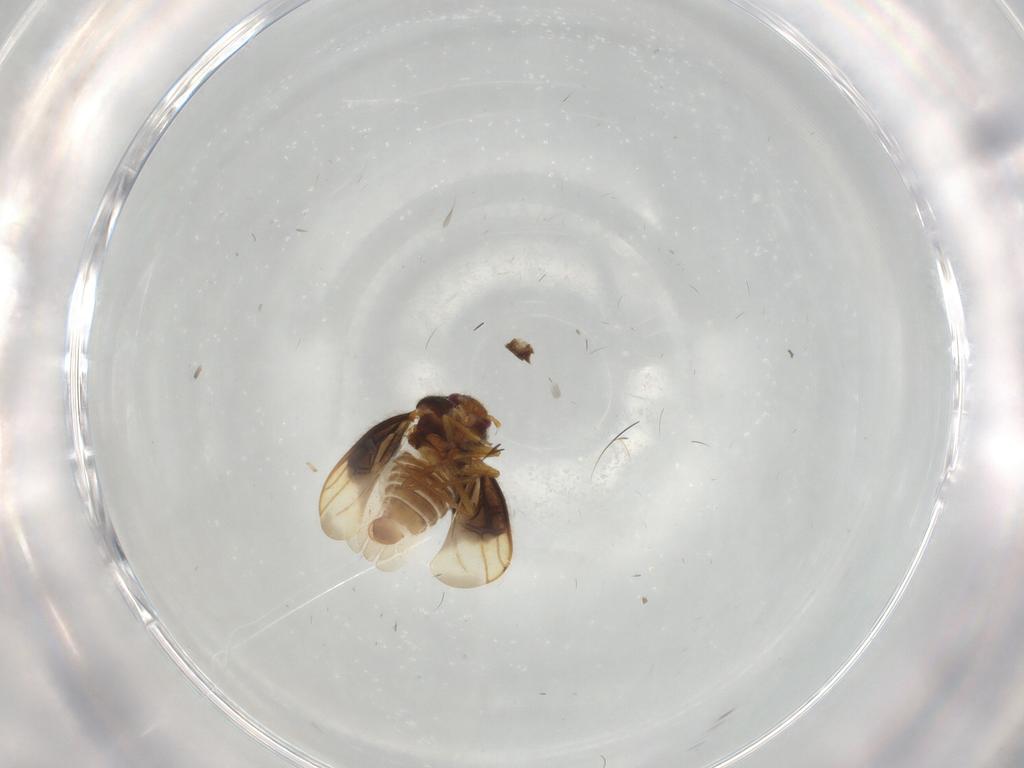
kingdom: Animalia
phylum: Arthropoda
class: Insecta
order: Hemiptera
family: Schizopteridae
